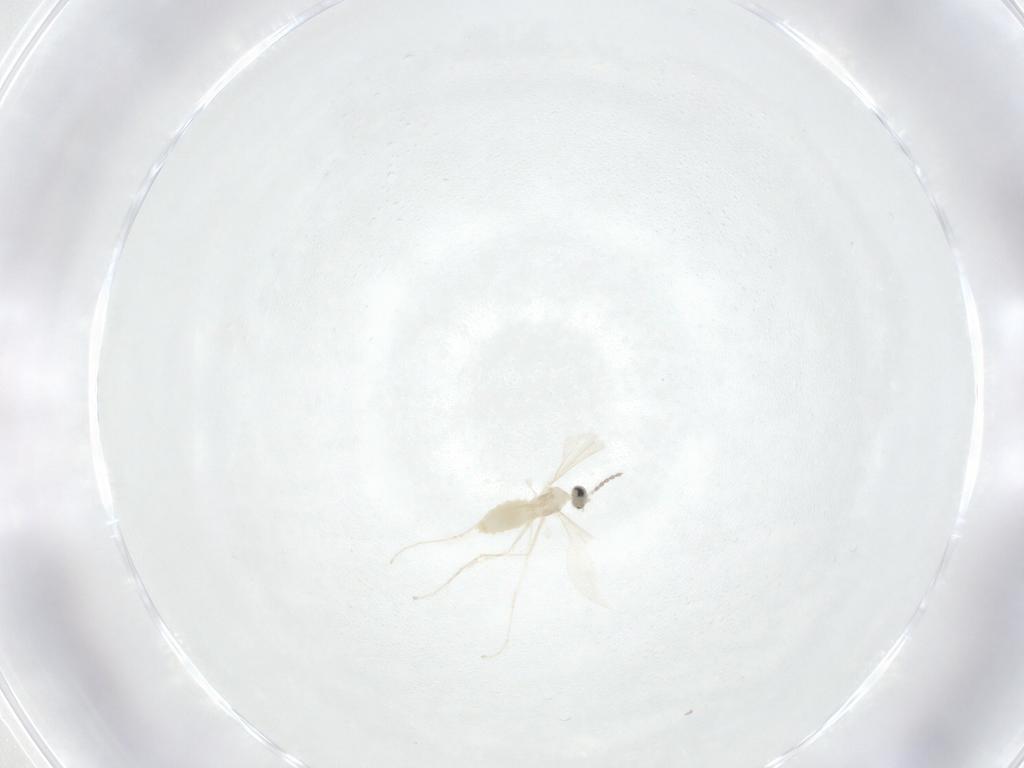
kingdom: Animalia
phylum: Arthropoda
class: Insecta
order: Diptera
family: Cecidomyiidae
